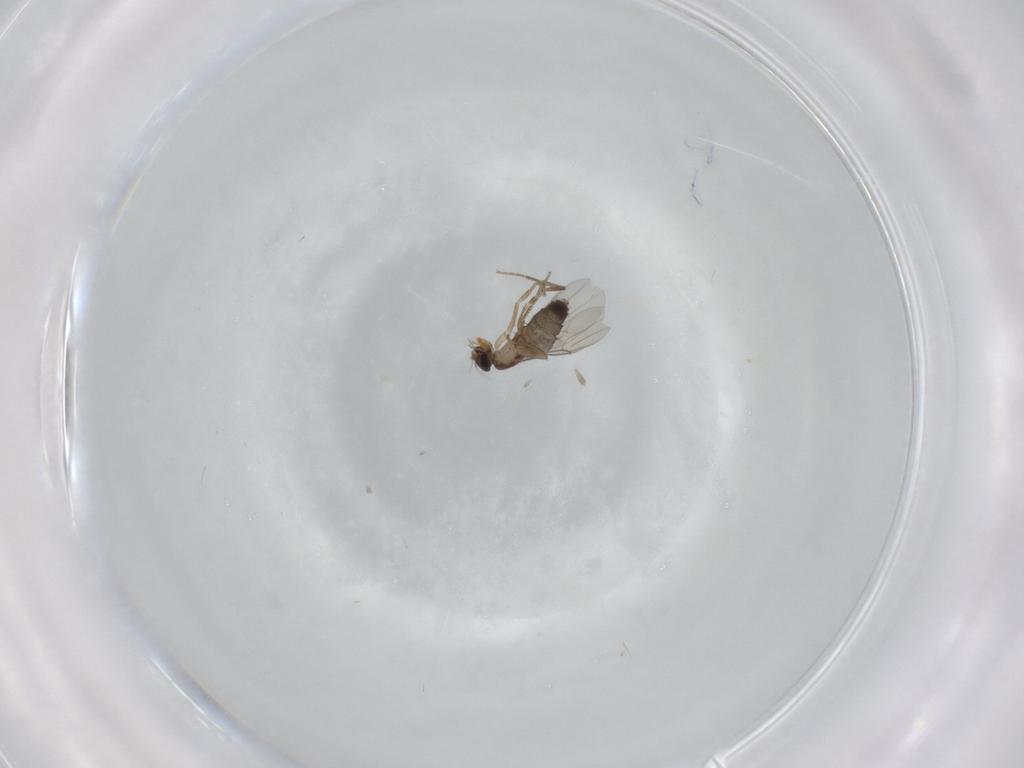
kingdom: Animalia
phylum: Arthropoda
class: Insecta
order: Diptera
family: Phoridae
